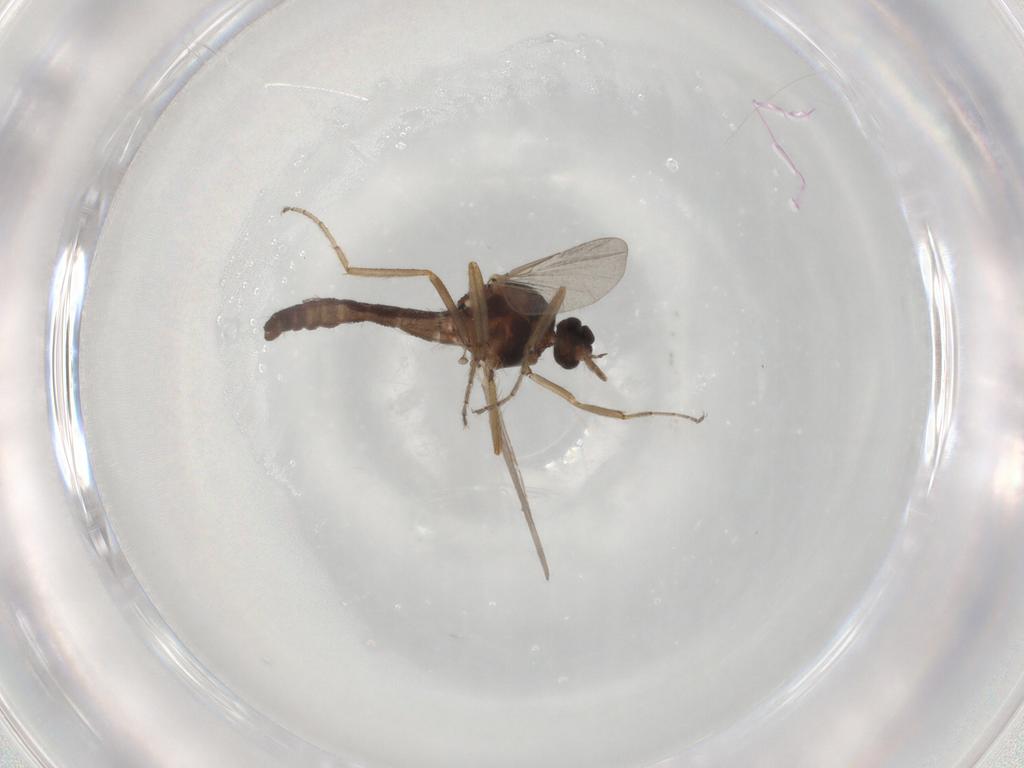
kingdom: Animalia
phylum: Arthropoda
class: Insecta
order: Diptera
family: Ceratopogonidae
